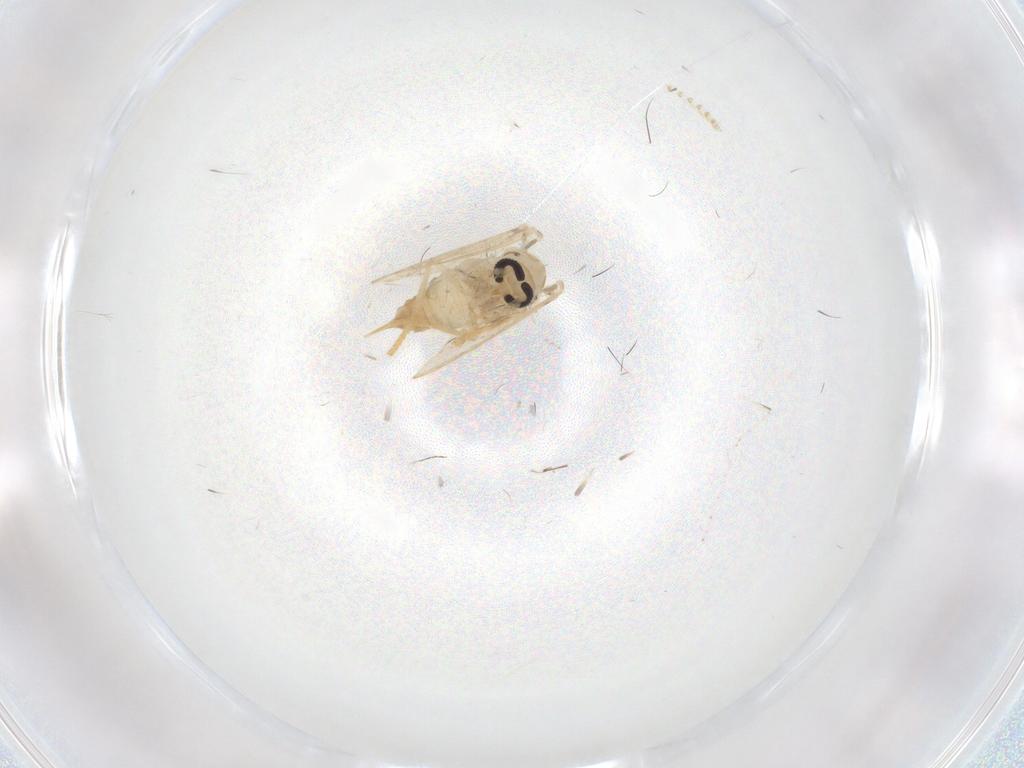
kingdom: Animalia
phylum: Arthropoda
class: Insecta
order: Diptera
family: Psychodidae
